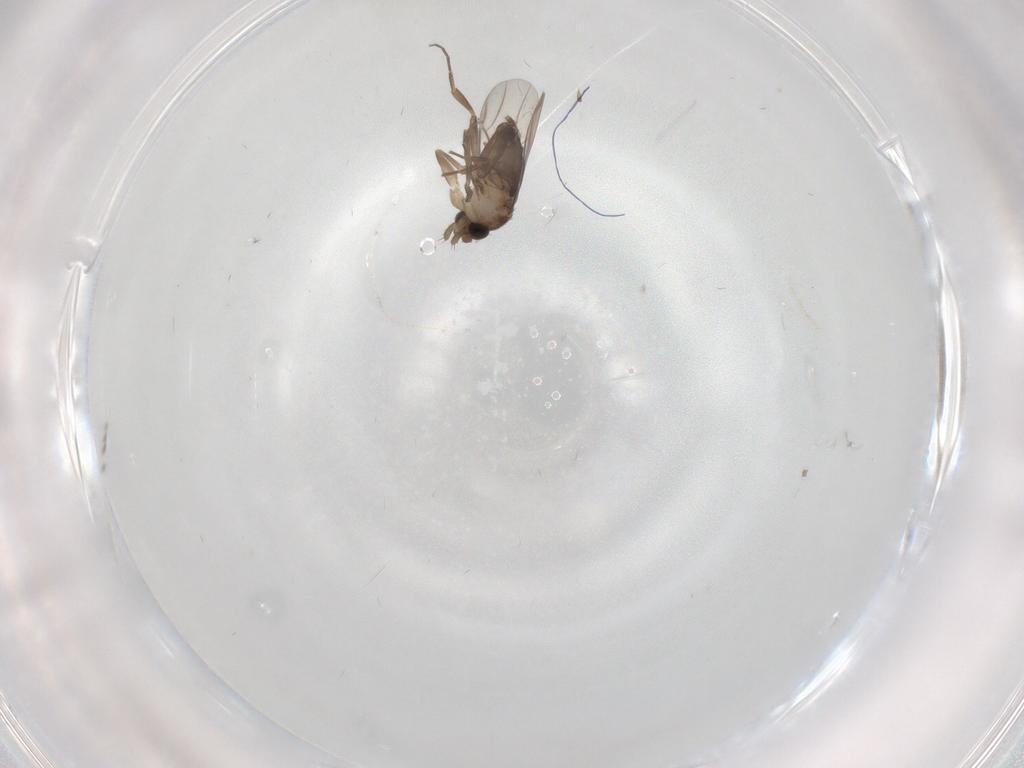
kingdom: Animalia
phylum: Arthropoda
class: Insecta
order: Diptera
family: Phoridae
